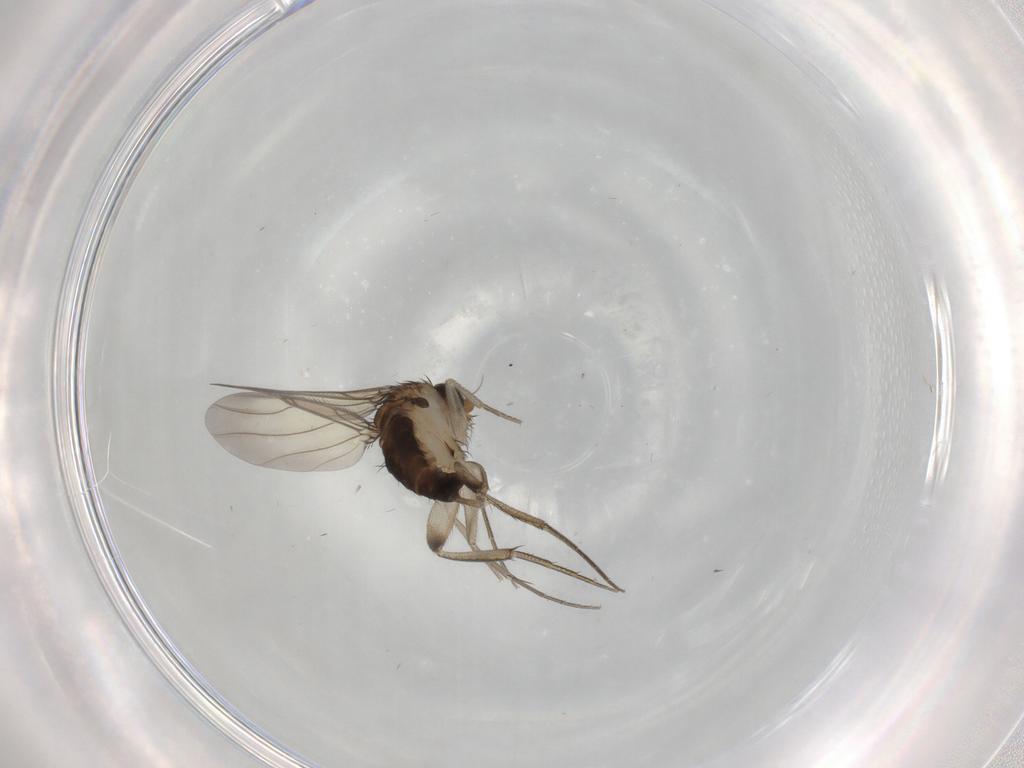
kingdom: Animalia
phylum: Arthropoda
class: Insecta
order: Diptera
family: Phoridae
